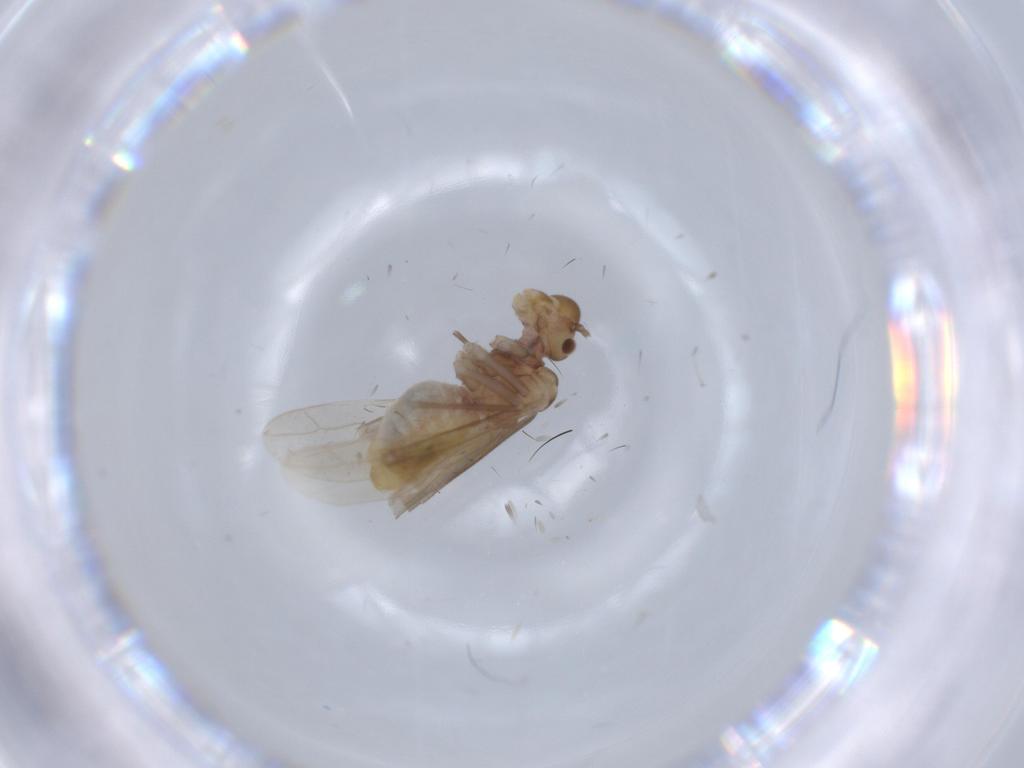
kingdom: Animalia
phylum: Arthropoda
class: Insecta
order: Psocodea
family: Caeciliusidae
